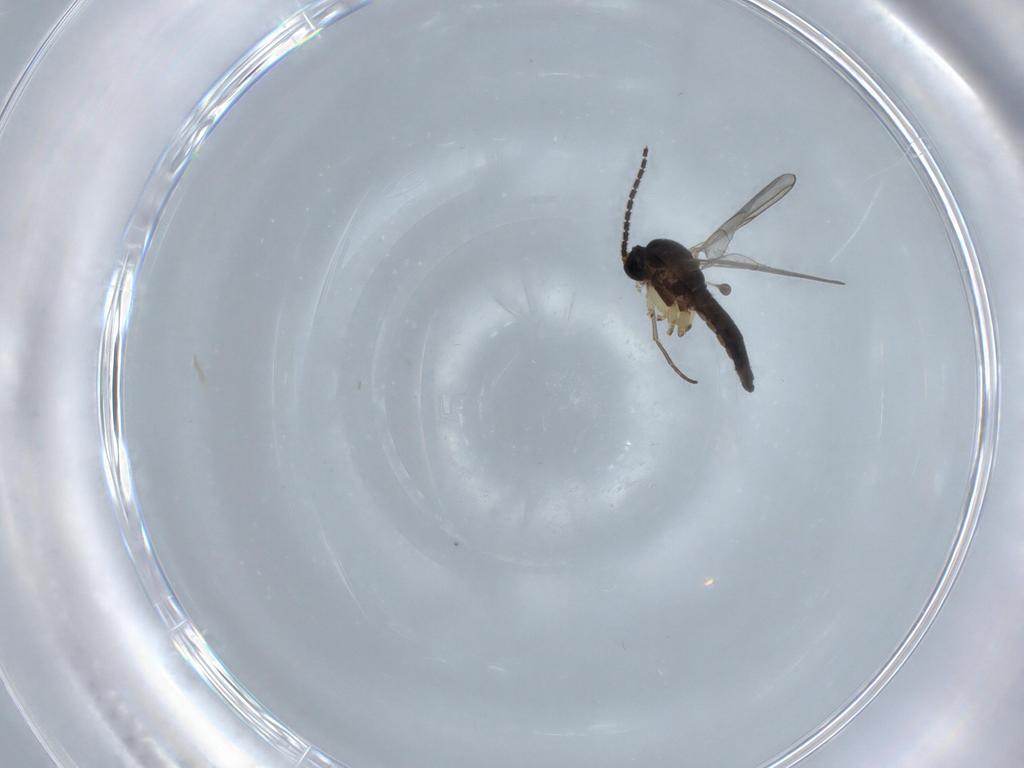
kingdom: Animalia
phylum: Arthropoda
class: Insecta
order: Diptera
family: Sciaridae
